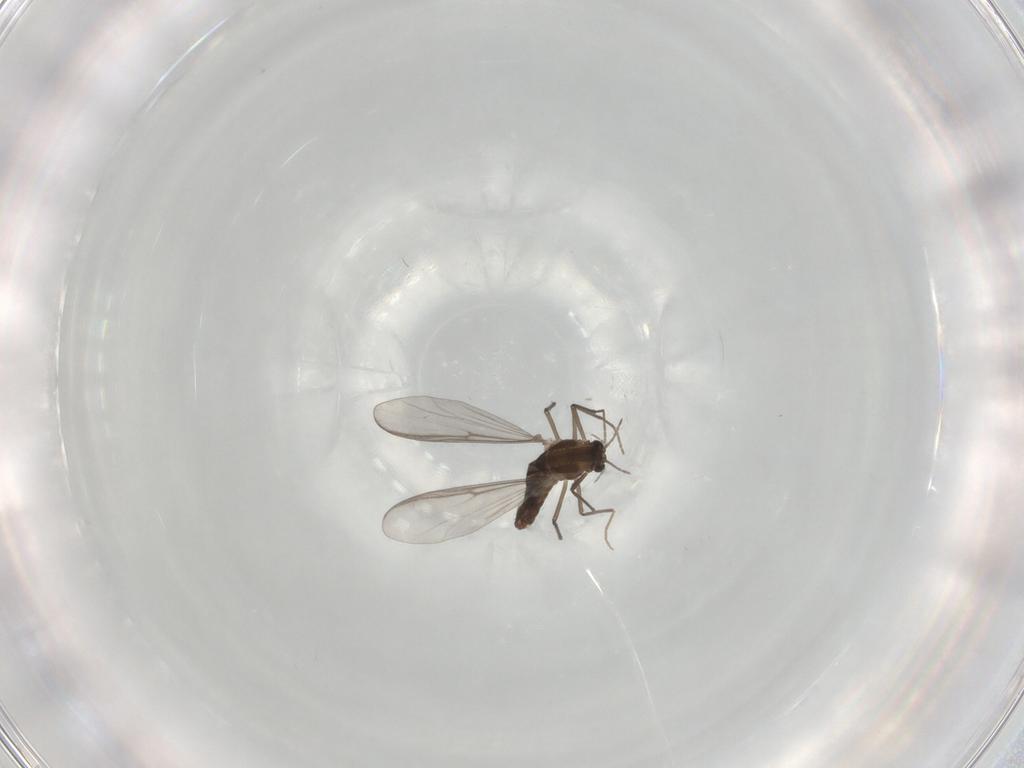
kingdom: Animalia
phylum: Arthropoda
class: Insecta
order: Diptera
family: Chironomidae
